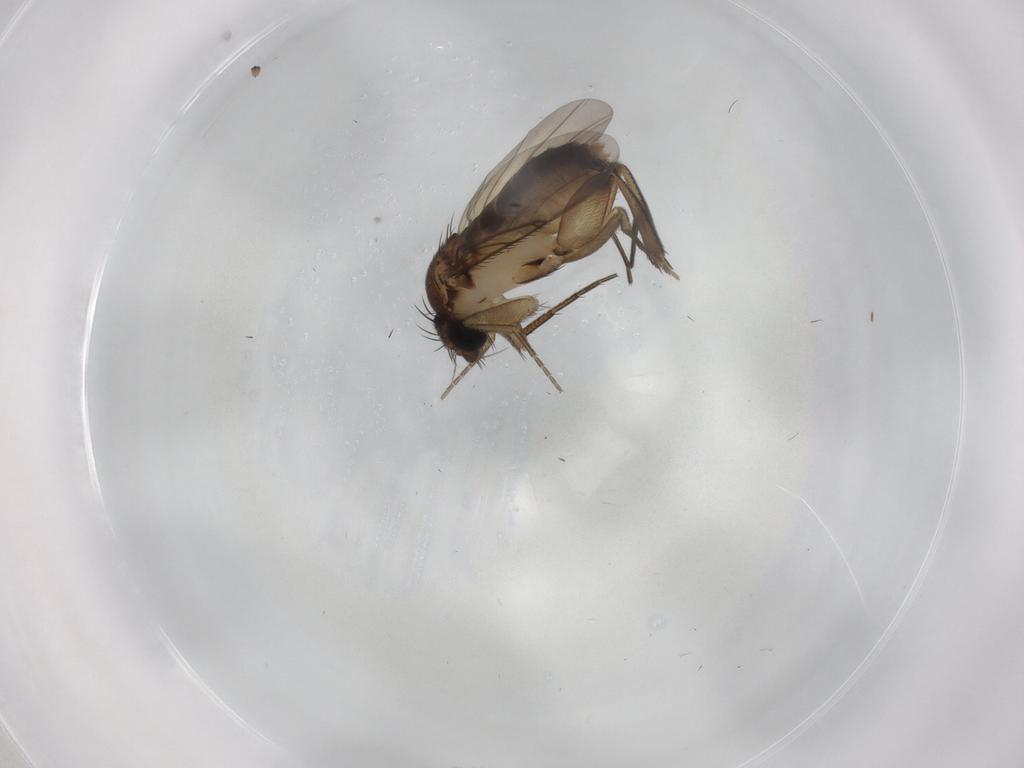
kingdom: Animalia
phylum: Arthropoda
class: Insecta
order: Diptera
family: Phoridae
